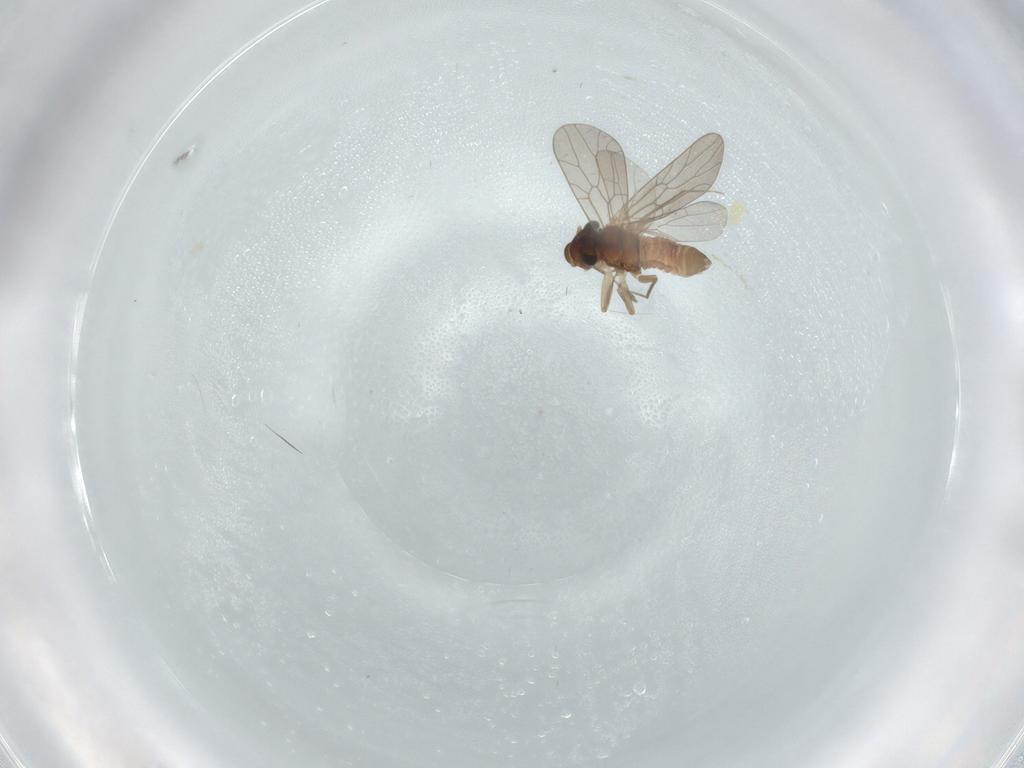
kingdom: Animalia
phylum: Arthropoda
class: Insecta
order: Psocodea
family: Lepidopsocidae
